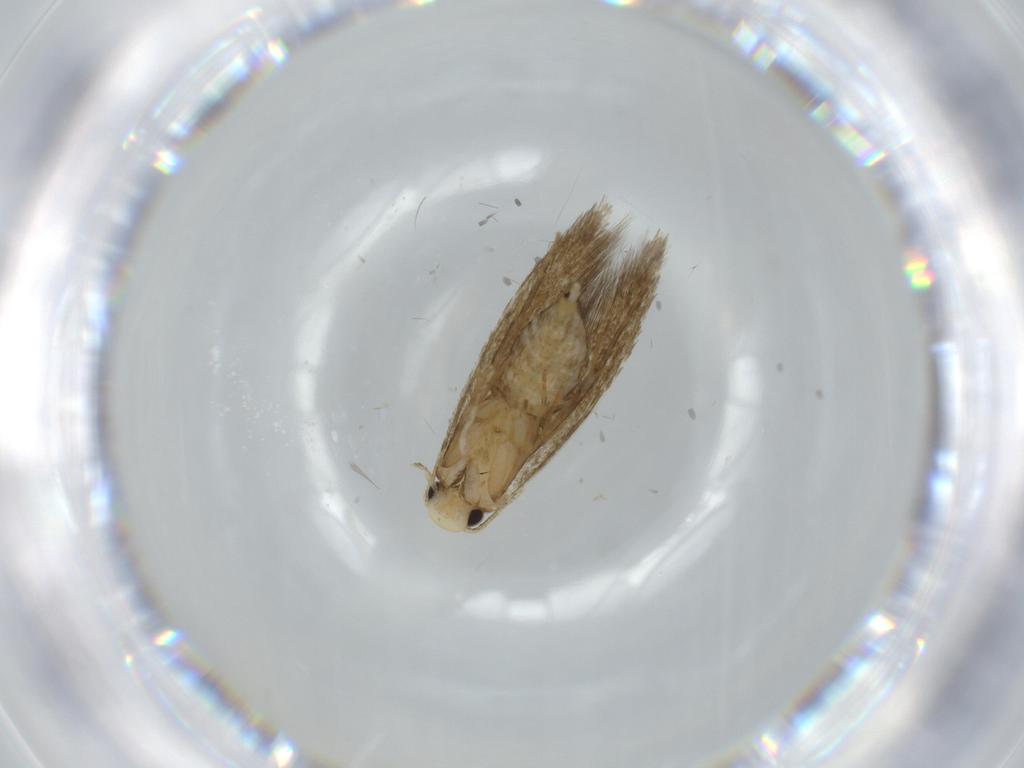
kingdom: Animalia
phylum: Arthropoda
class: Insecta
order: Lepidoptera
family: Tineidae
